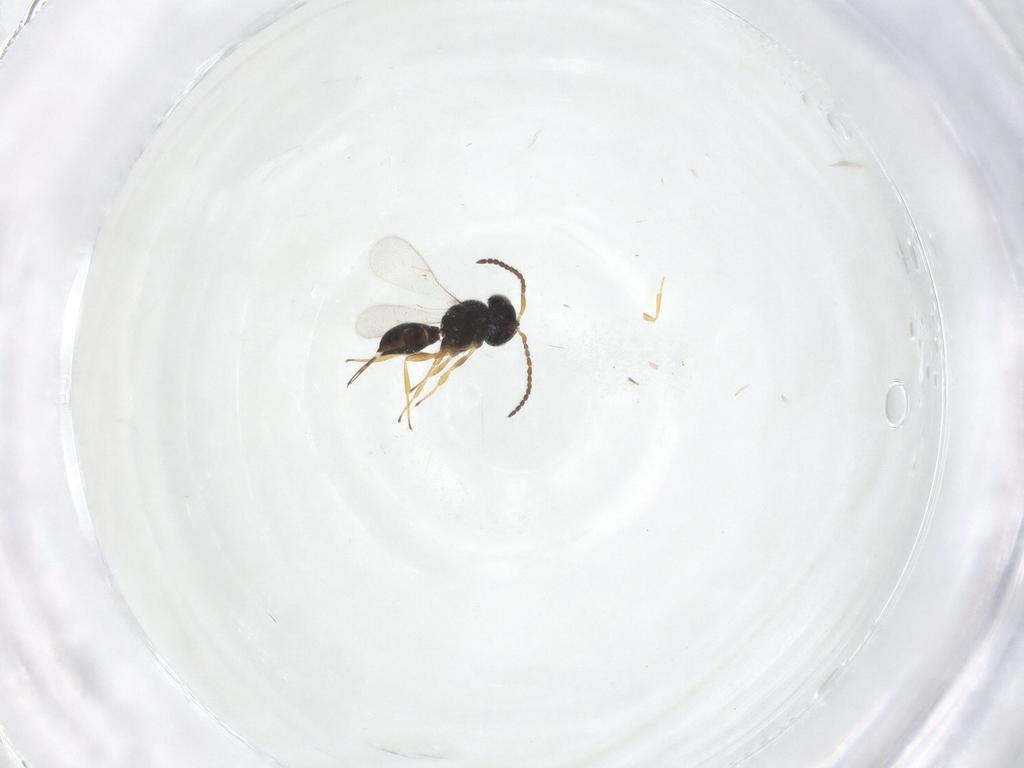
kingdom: Animalia
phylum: Arthropoda
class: Insecta
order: Hymenoptera
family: Scelionidae
